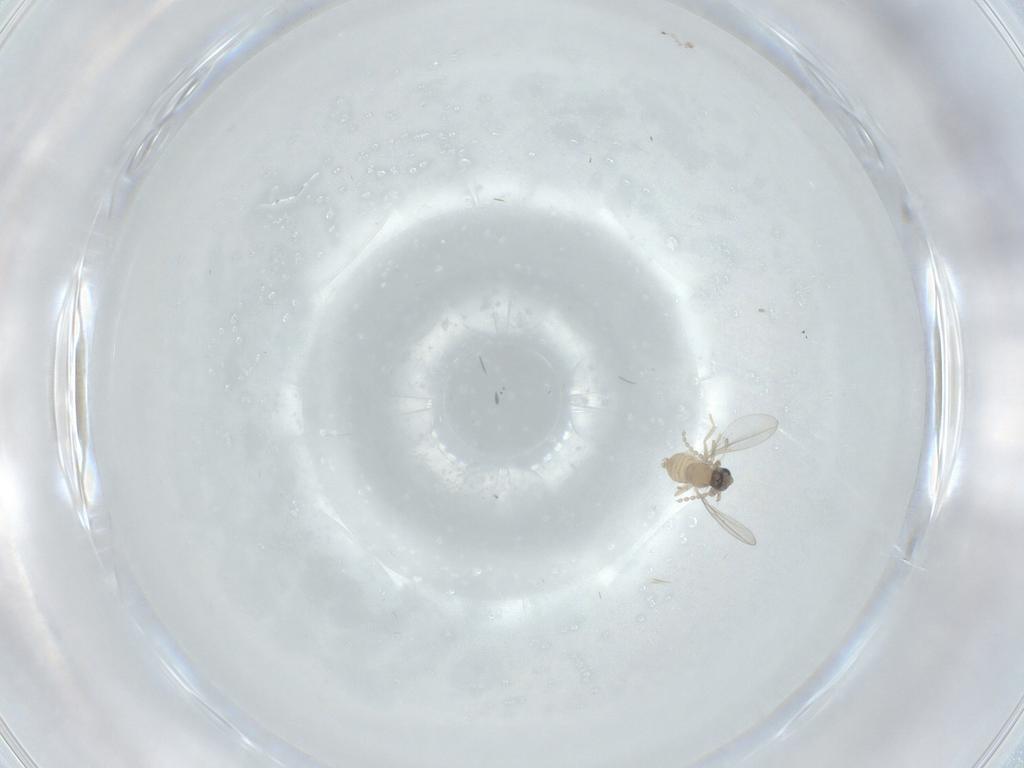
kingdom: Animalia
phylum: Arthropoda
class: Insecta
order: Diptera
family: Cecidomyiidae
